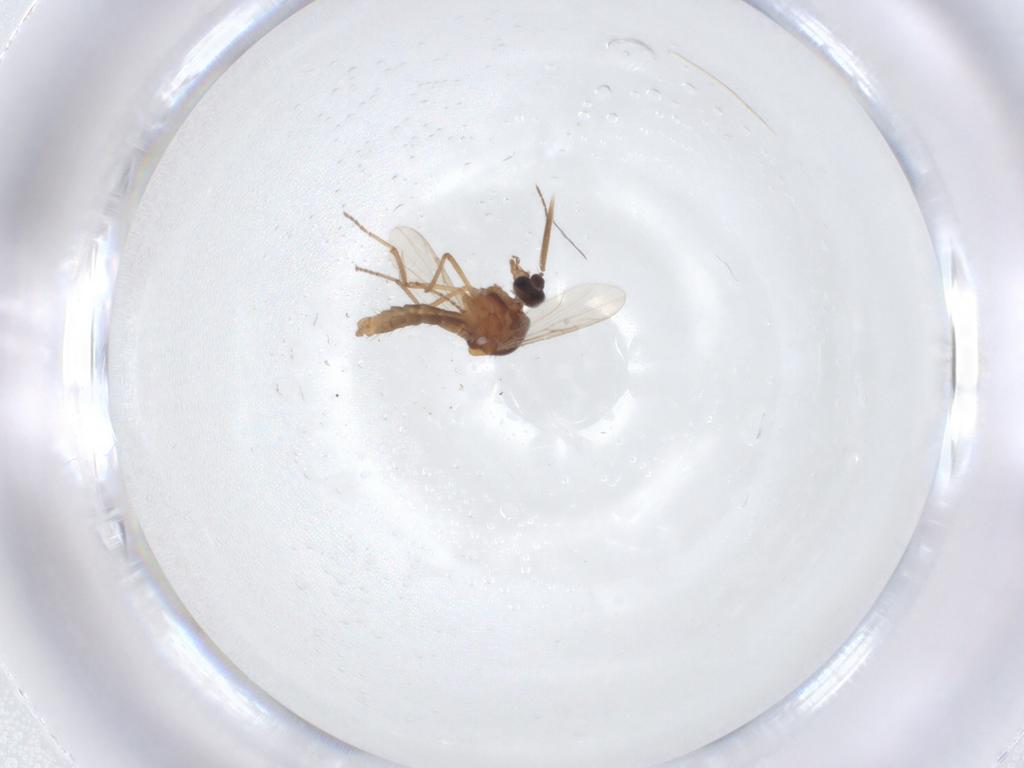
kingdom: Animalia
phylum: Arthropoda
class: Insecta
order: Diptera
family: Ceratopogonidae
